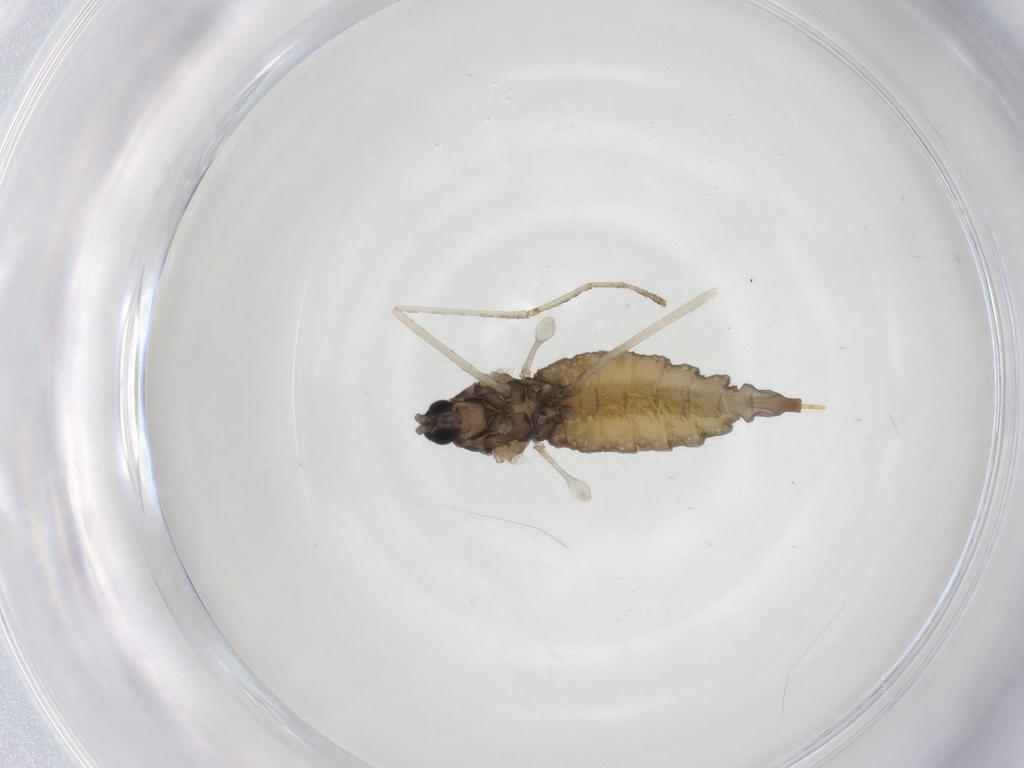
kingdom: Animalia
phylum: Arthropoda
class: Insecta
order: Diptera
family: Cecidomyiidae
